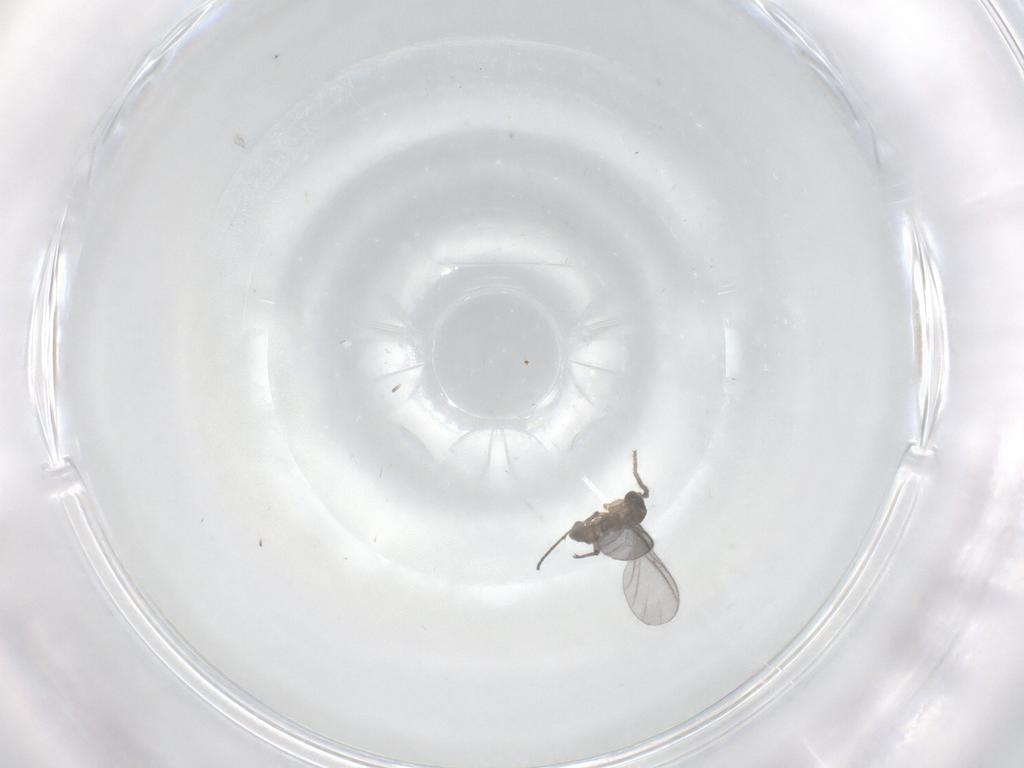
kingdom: Animalia
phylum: Arthropoda
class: Insecta
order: Diptera
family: Sciaridae
